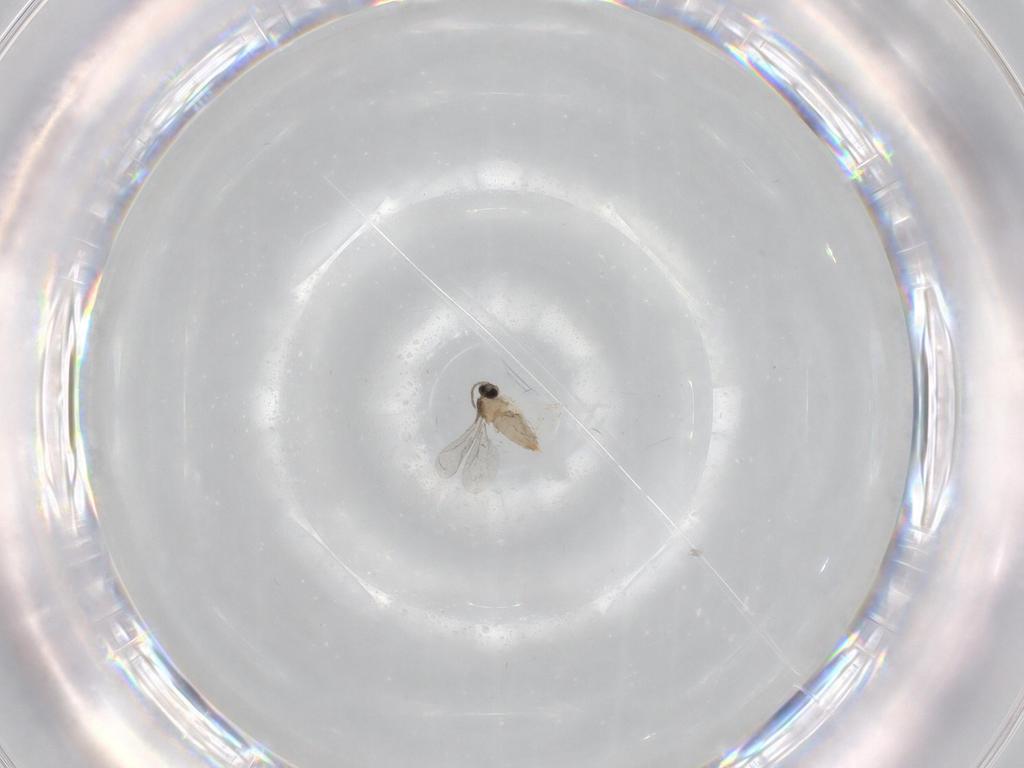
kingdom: Animalia
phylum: Arthropoda
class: Insecta
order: Diptera
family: Cecidomyiidae
